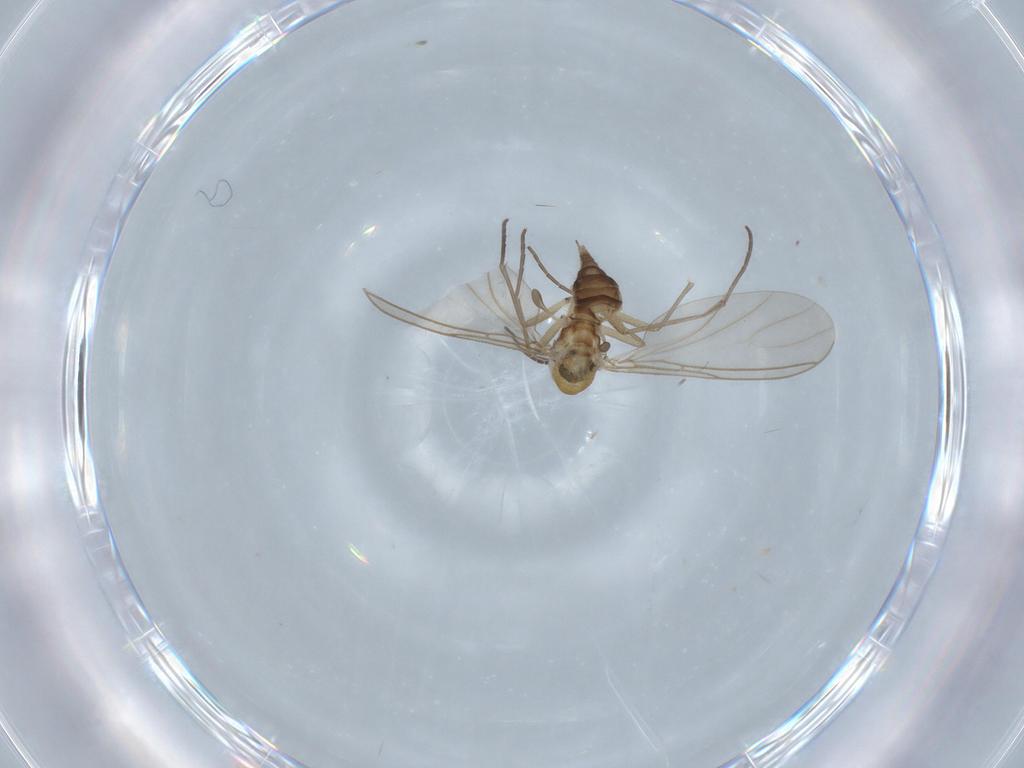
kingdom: Animalia
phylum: Arthropoda
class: Insecta
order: Diptera
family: Sciaridae
